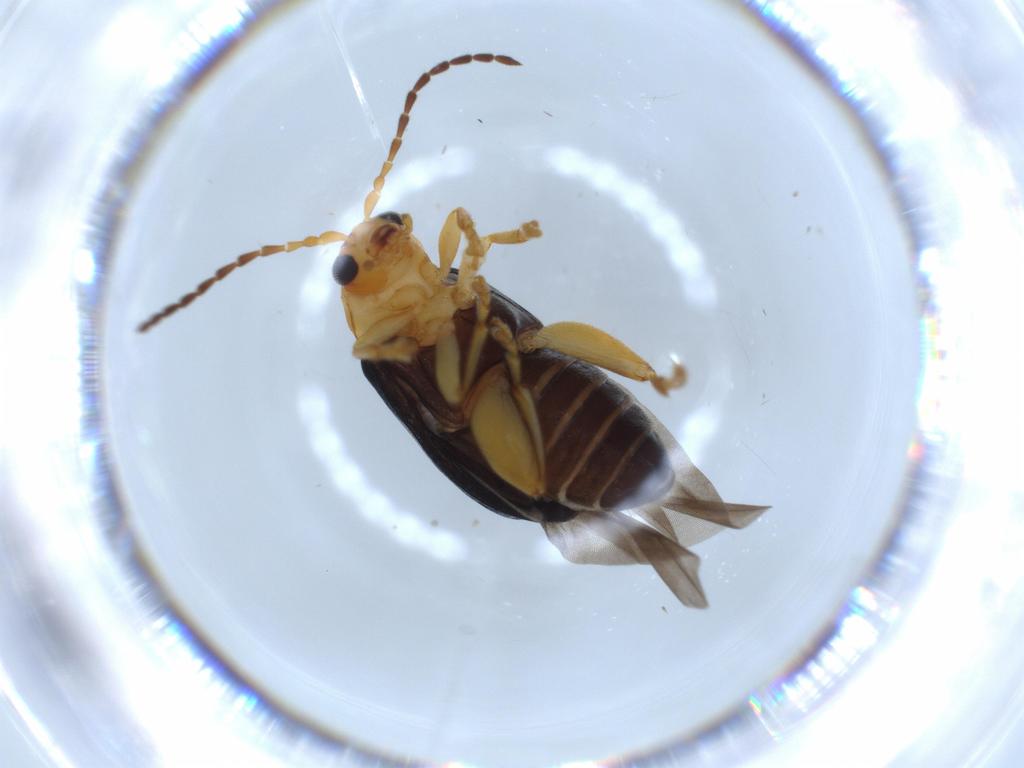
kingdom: Animalia
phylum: Arthropoda
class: Insecta
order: Coleoptera
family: Chrysomelidae
